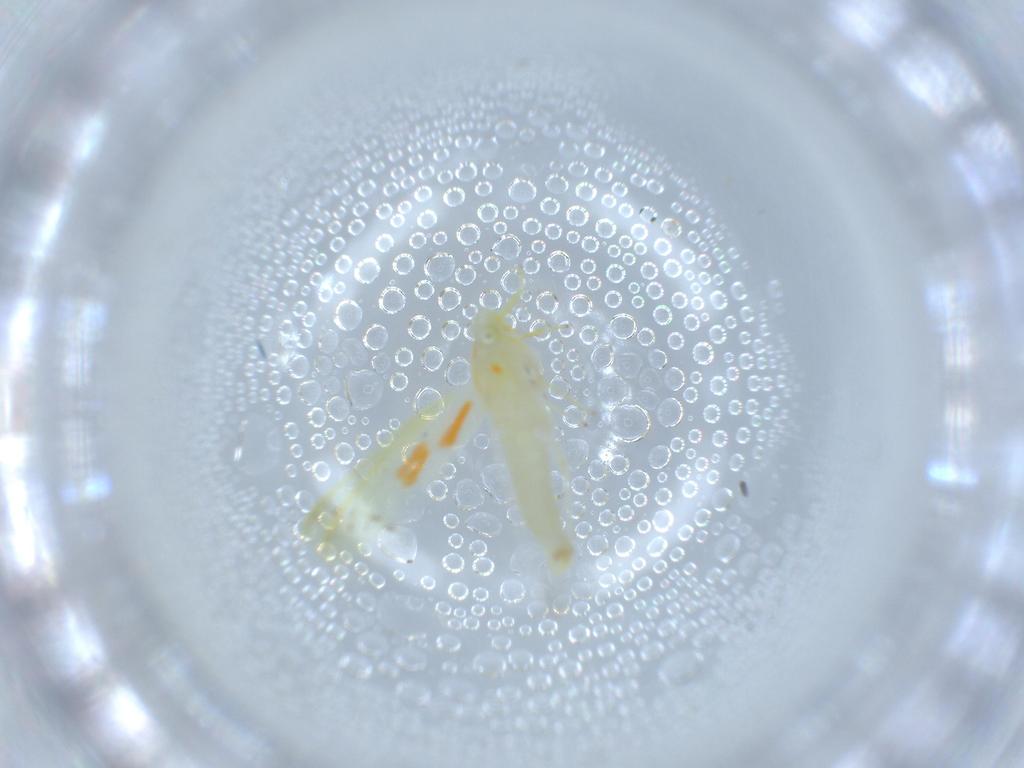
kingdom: Animalia
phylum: Arthropoda
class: Insecta
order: Hemiptera
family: Cicadellidae
